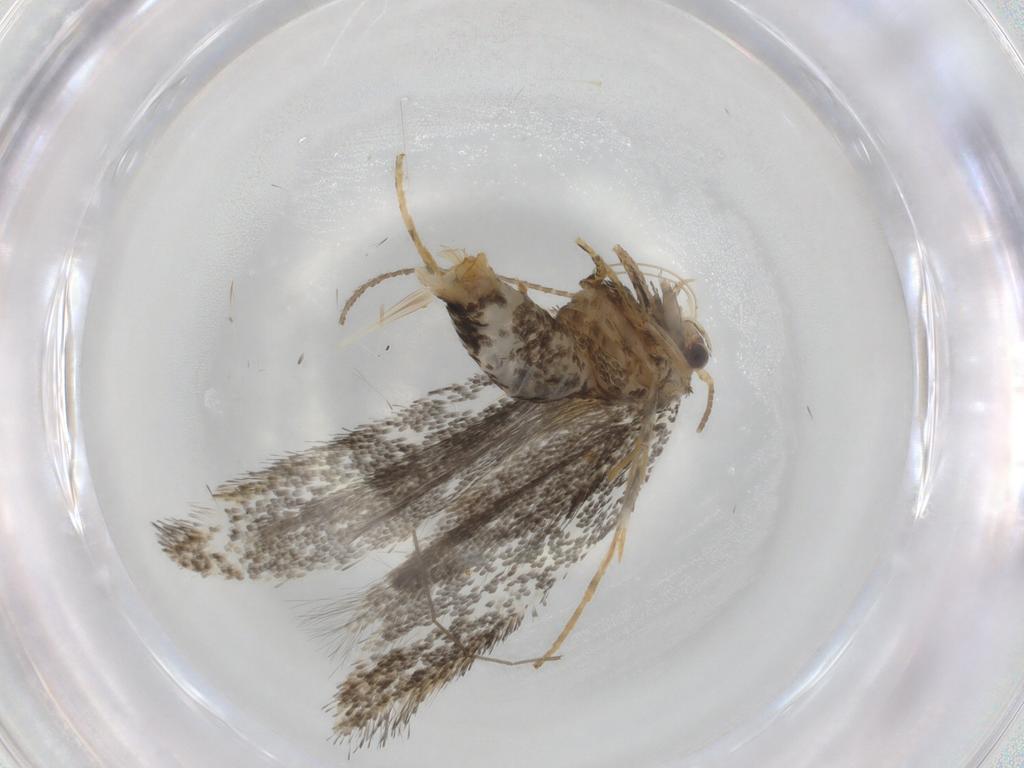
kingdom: Animalia
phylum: Arthropoda
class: Insecta
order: Lepidoptera
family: Gelechiidae
